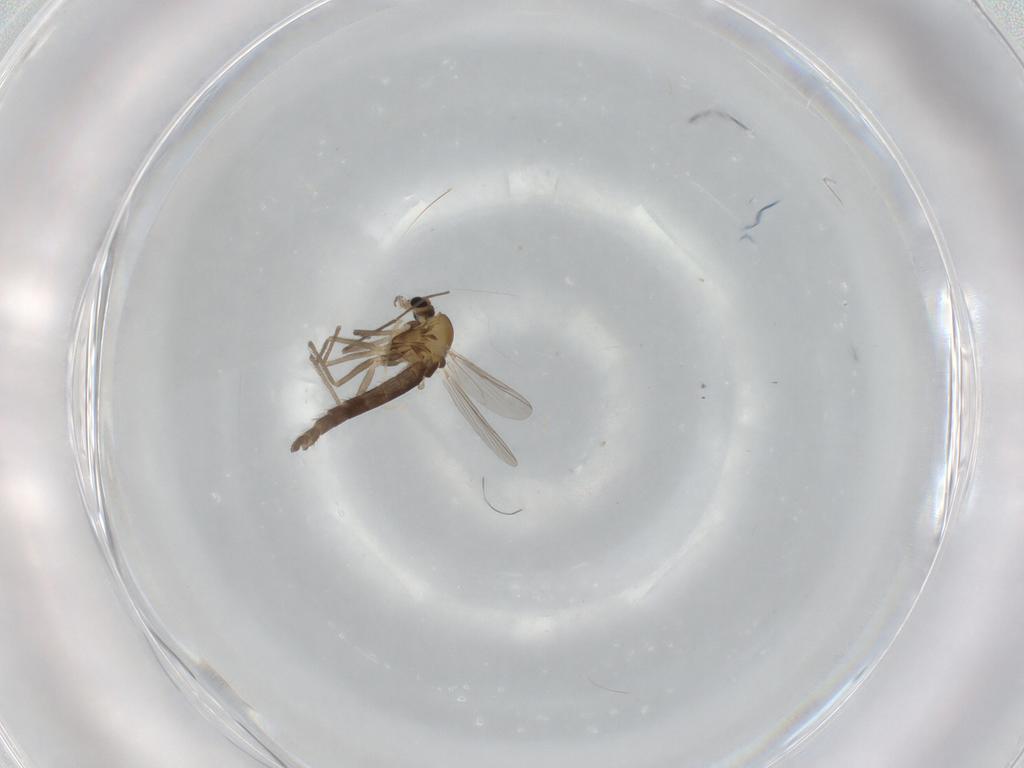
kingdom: Animalia
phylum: Arthropoda
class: Insecta
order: Diptera
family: Chironomidae
